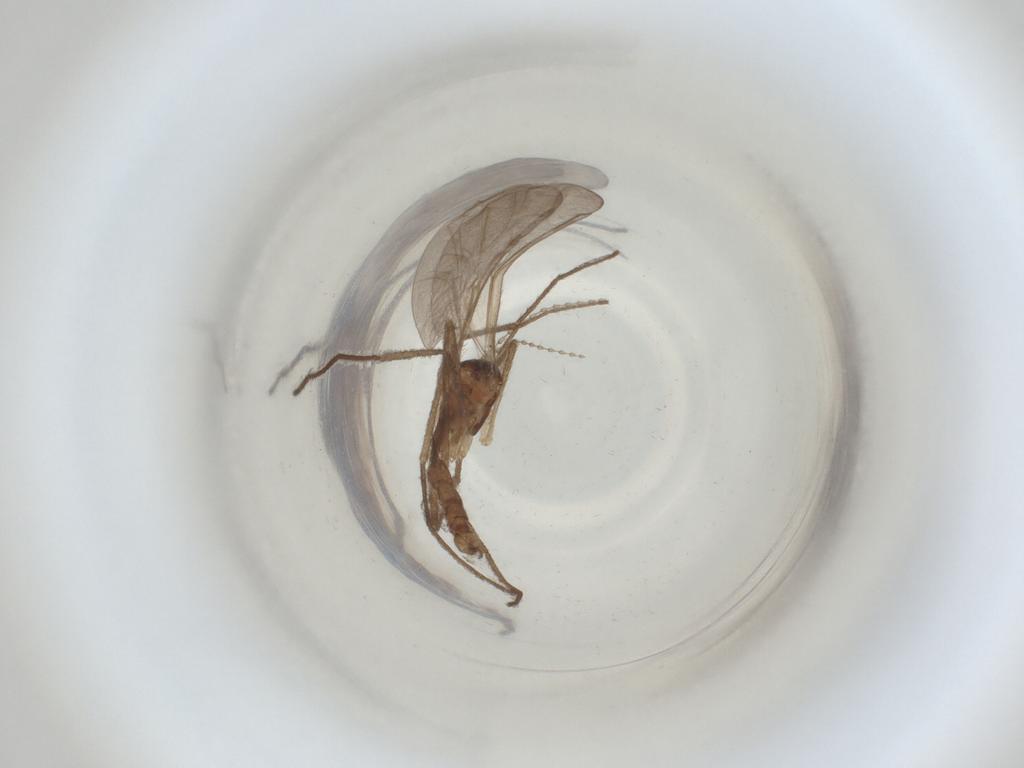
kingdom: Animalia
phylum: Arthropoda
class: Insecta
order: Diptera
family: Cecidomyiidae
